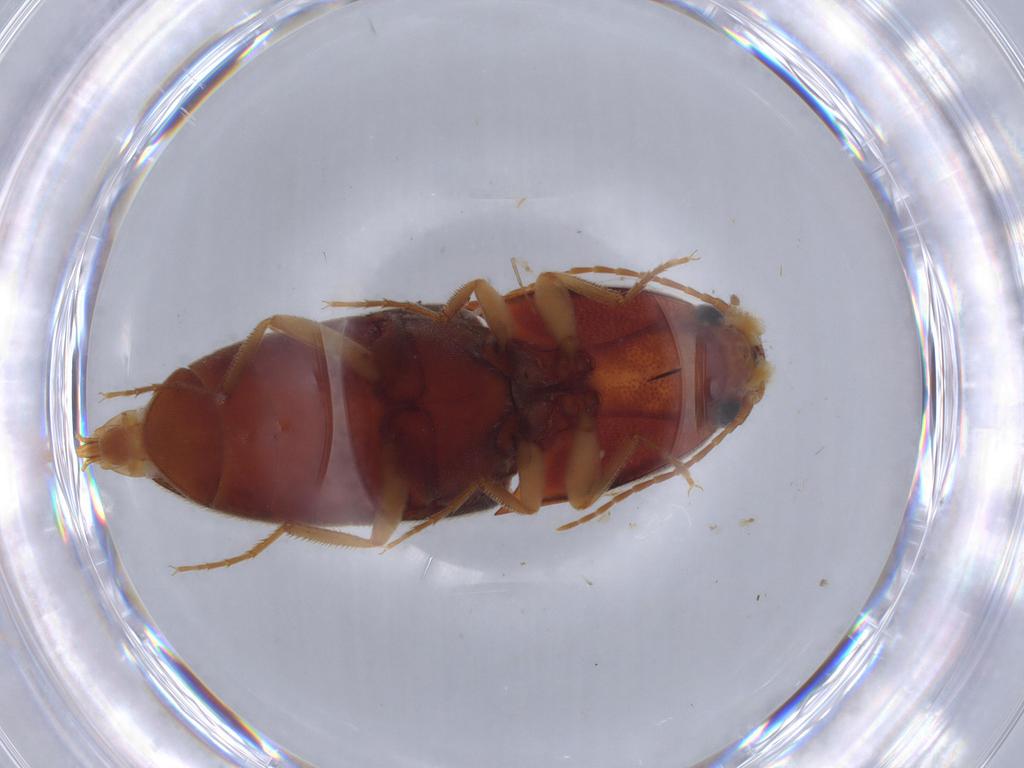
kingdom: Animalia
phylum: Arthropoda
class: Insecta
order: Coleoptera
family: Elateridae
